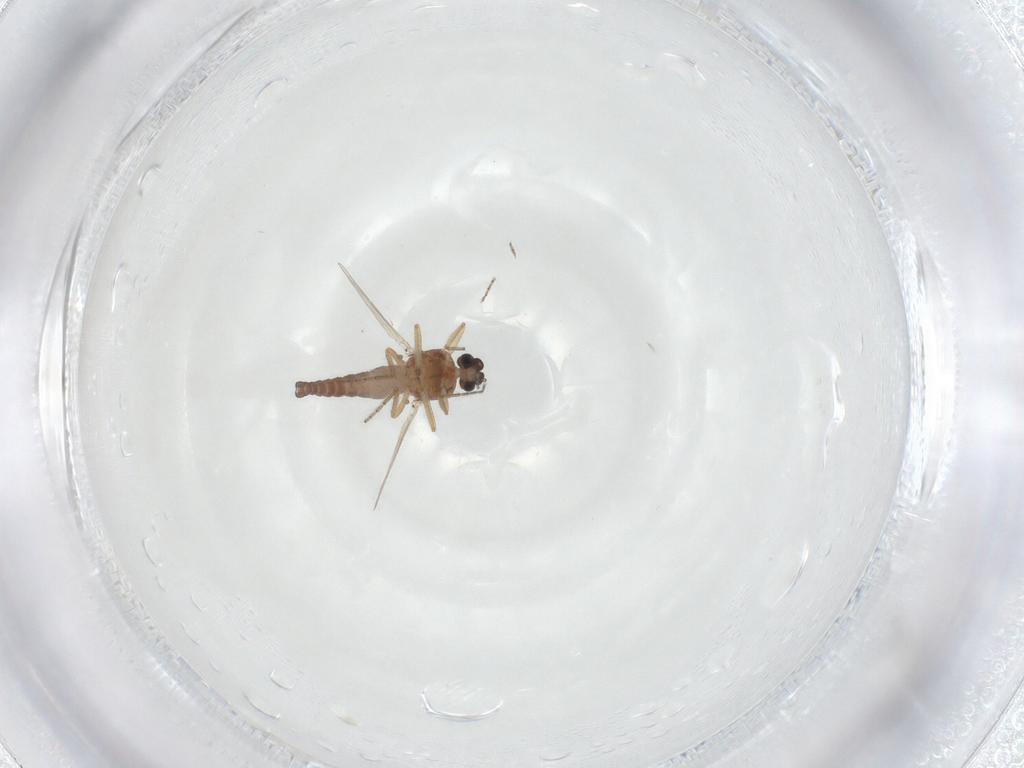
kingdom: Animalia
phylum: Arthropoda
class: Insecta
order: Diptera
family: Ceratopogonidae
